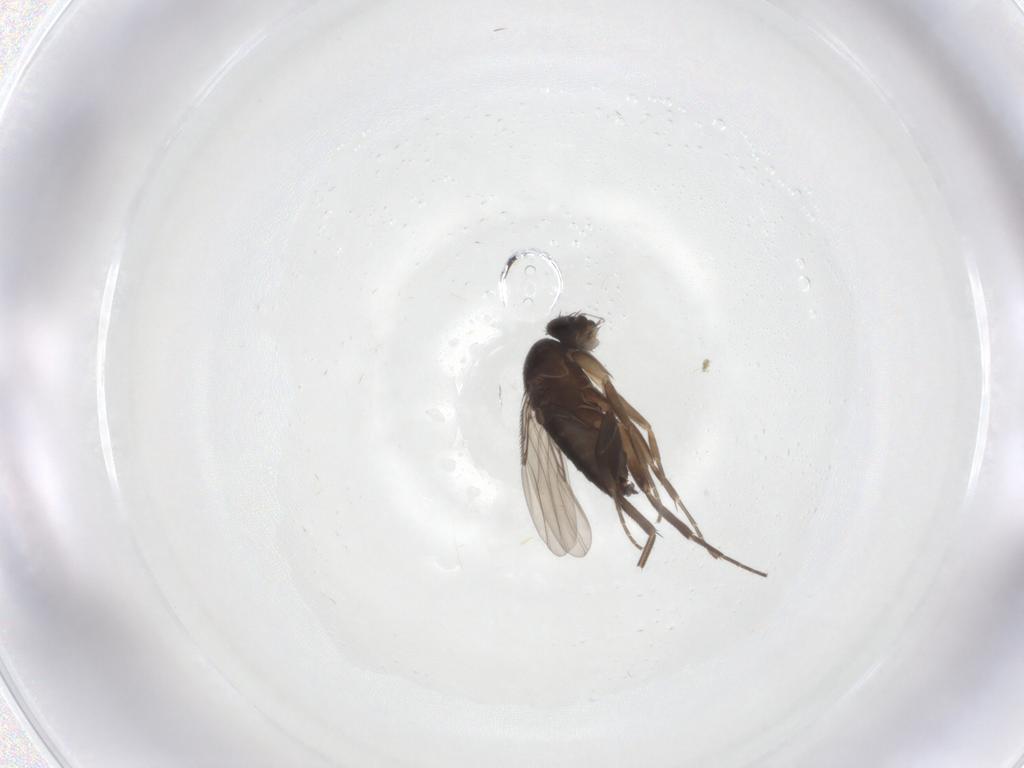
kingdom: Animalia
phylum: Arthropoda
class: Insecta
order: Diptera
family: Phoridae
